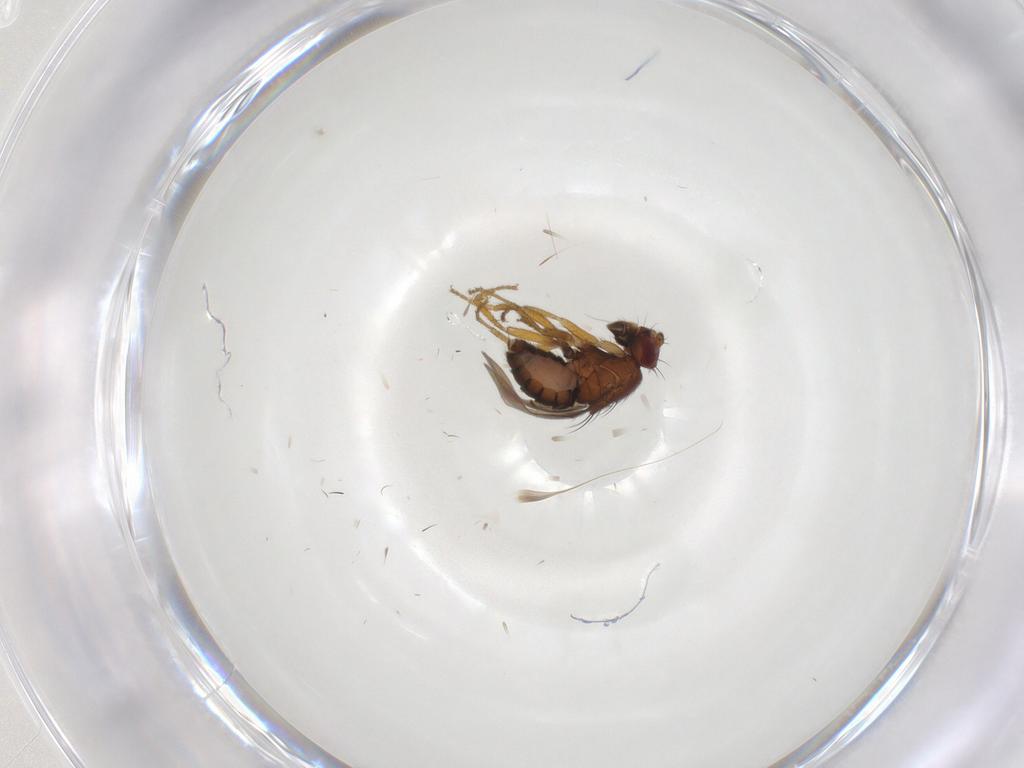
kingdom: Animalia
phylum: Arthropoda
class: Insecta
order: Diptera
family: Sphaeroceridae
